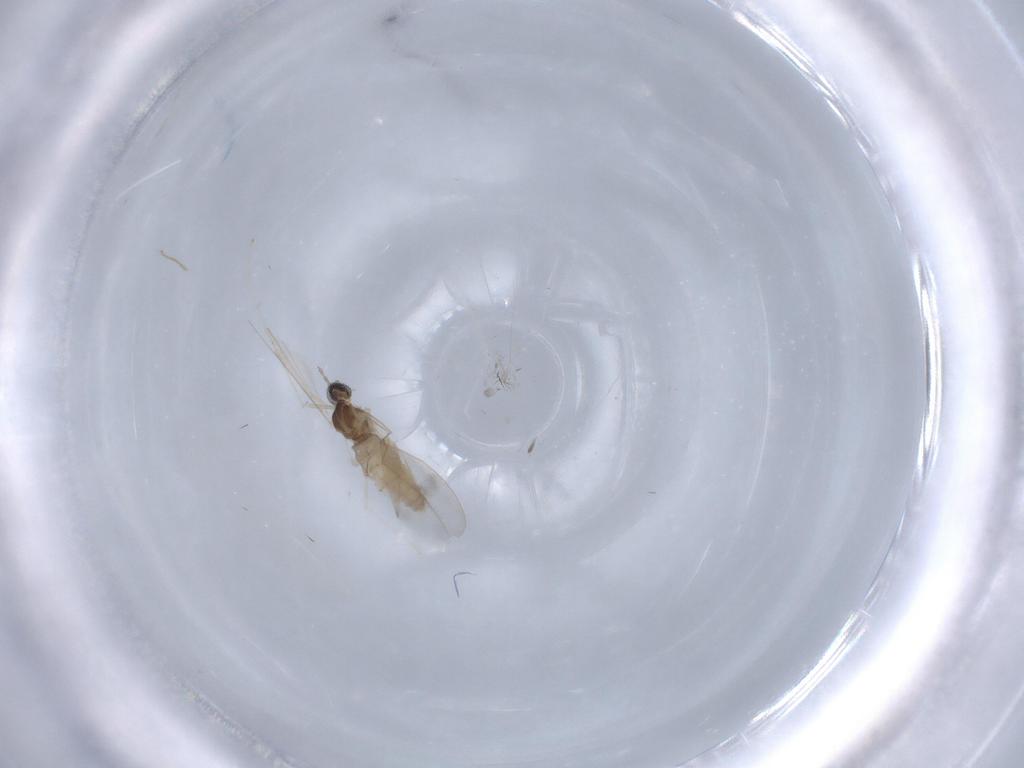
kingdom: Animalia
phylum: Arthropoda
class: Insecta
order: Diptera
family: Cecidomyiidae
